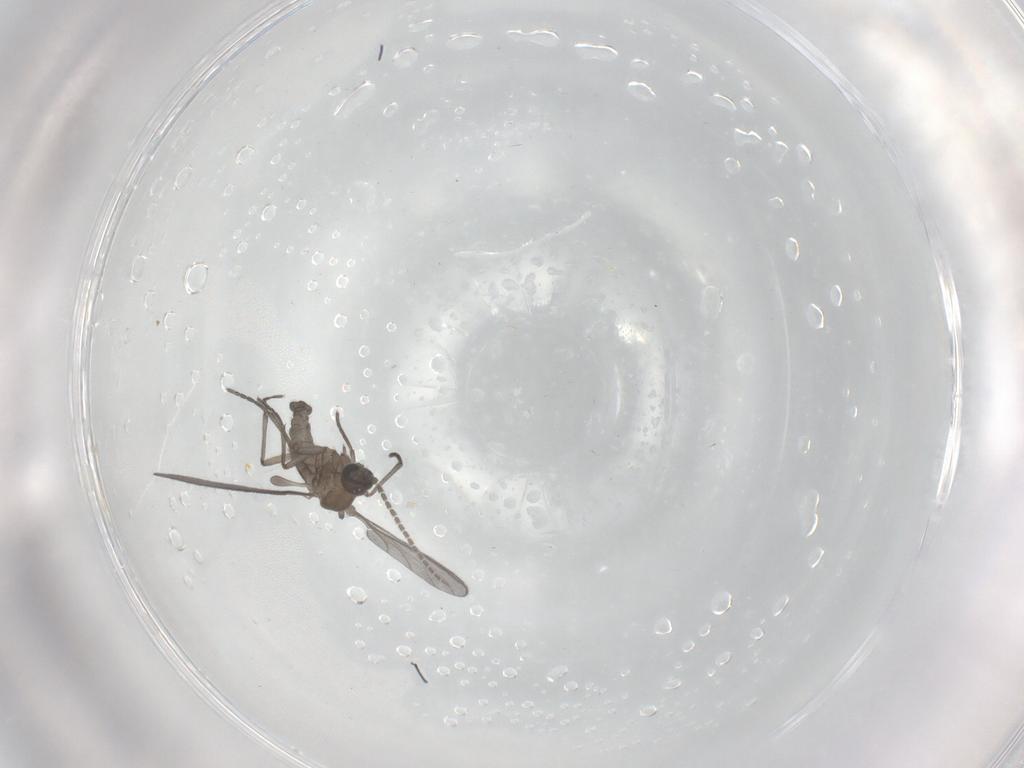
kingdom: Animalia
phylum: Arthropoda
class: Insecta
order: Diptera
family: Sciaridae
